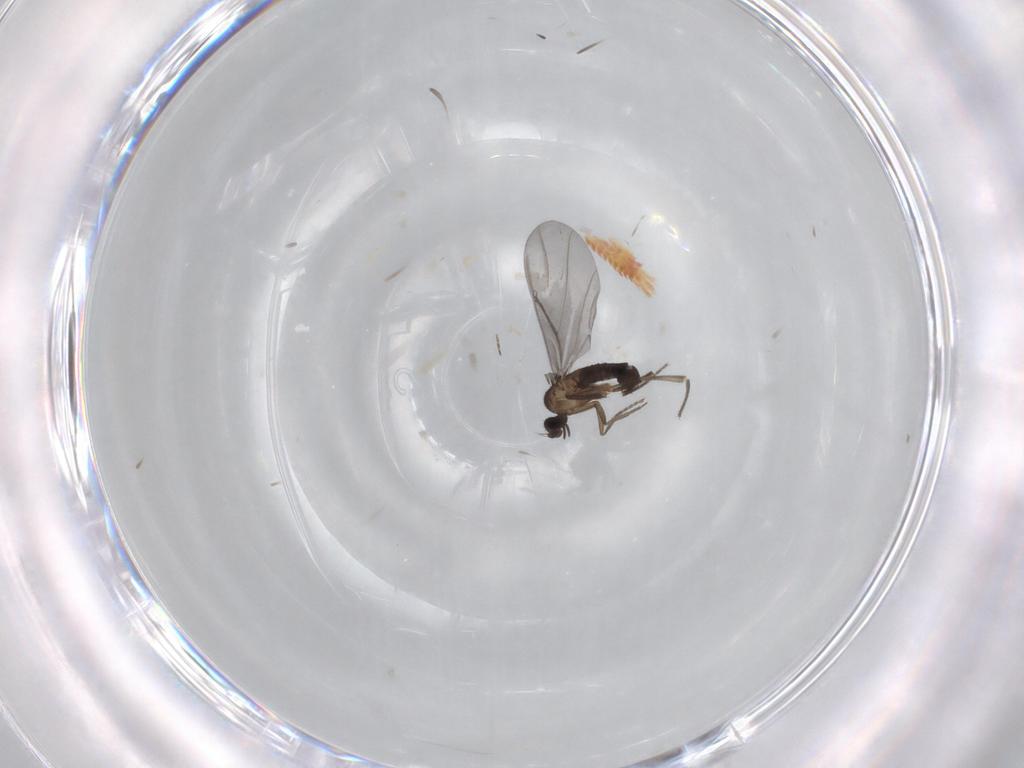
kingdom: Animalia
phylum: Arthropoda
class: Insecta
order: Diptera
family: Phoridae
